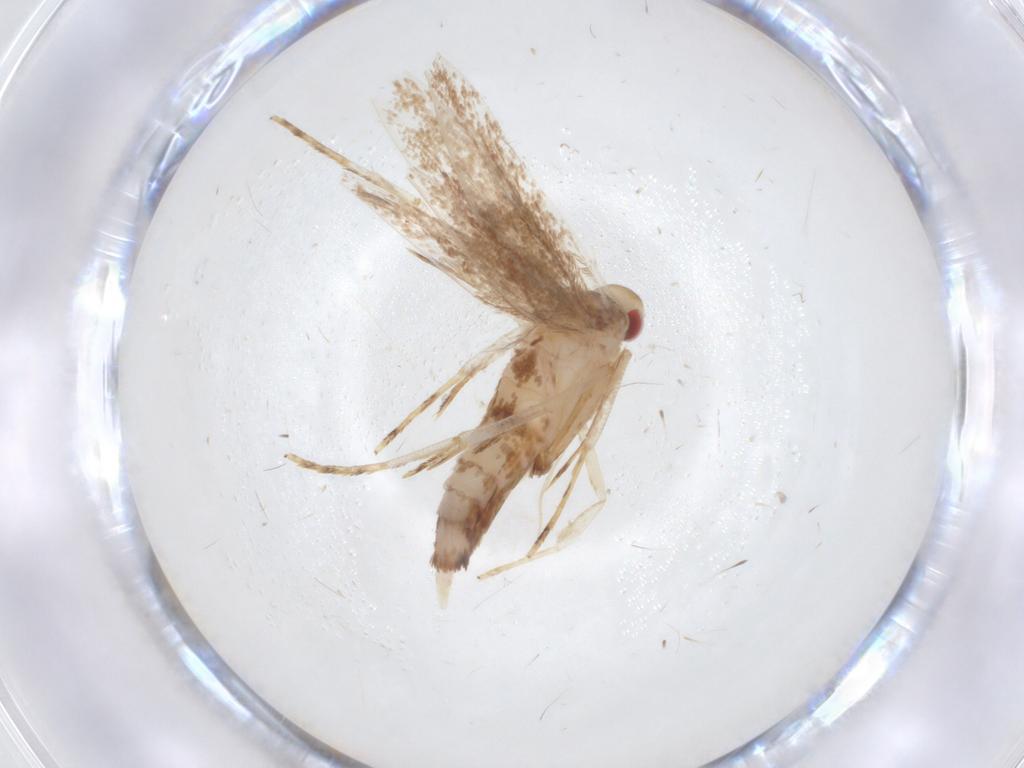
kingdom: Animalia
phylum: Arthropoda
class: Insecta
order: Lepidoptera
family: Cosmopterigidae
